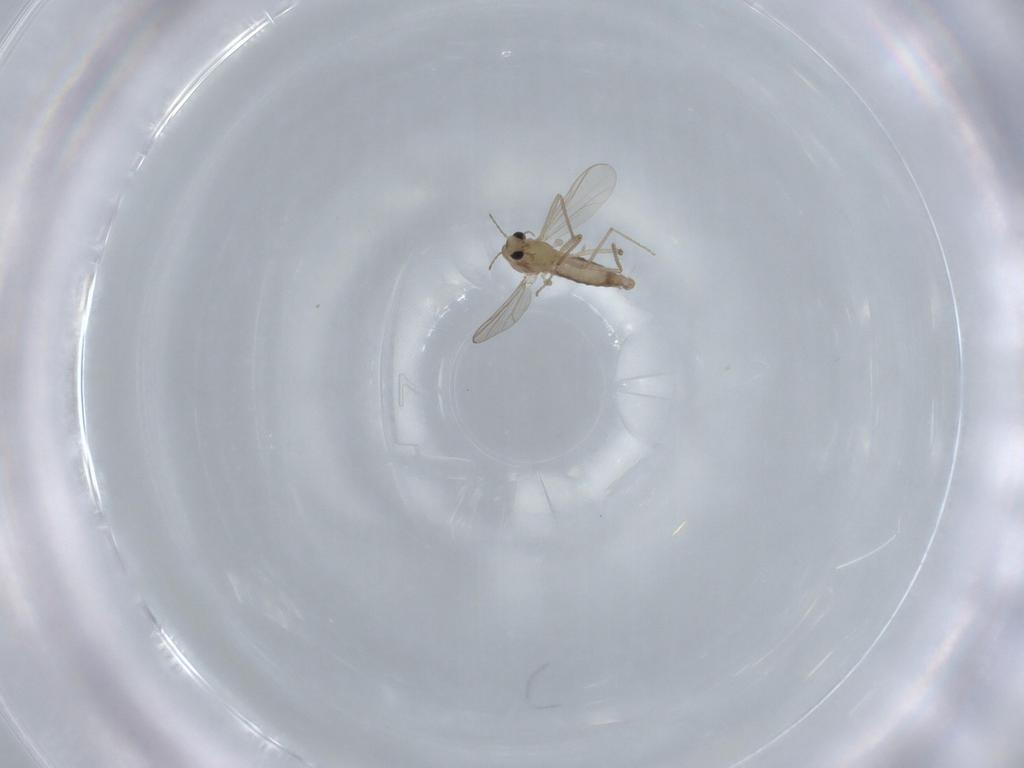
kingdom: Animalia
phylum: Arthropoda
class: Insecta
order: Diptera
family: Chironomidae
